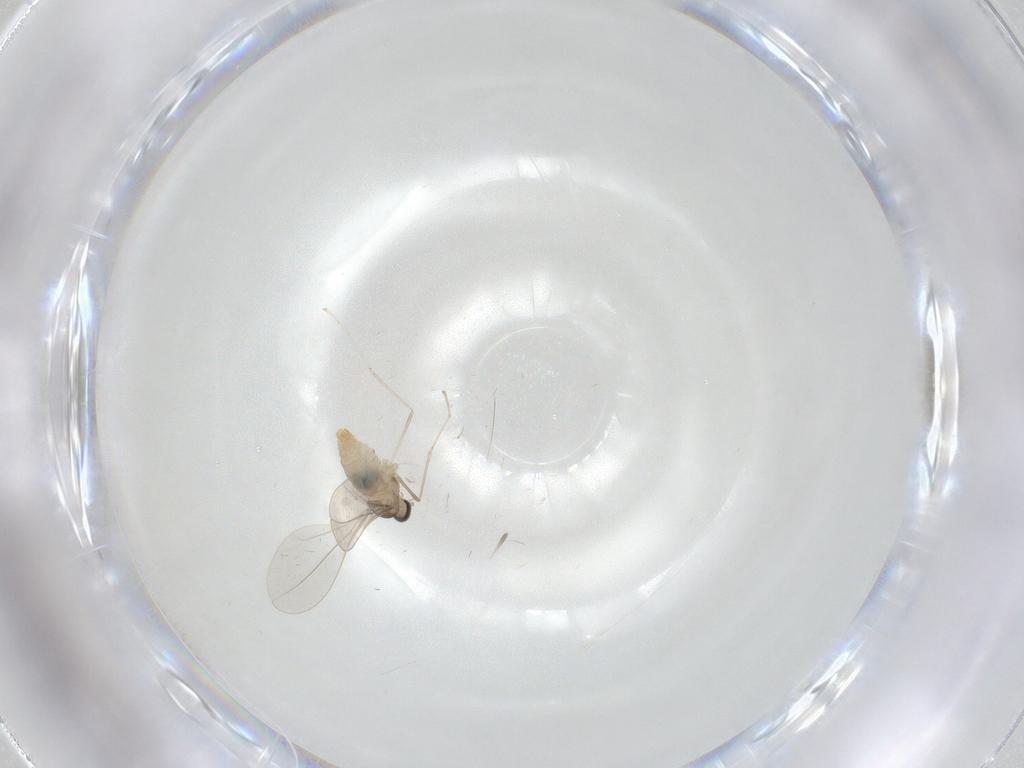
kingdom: Animalia
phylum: Arthropoda
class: Insecta
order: Diptera
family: Cecidomyiidae
